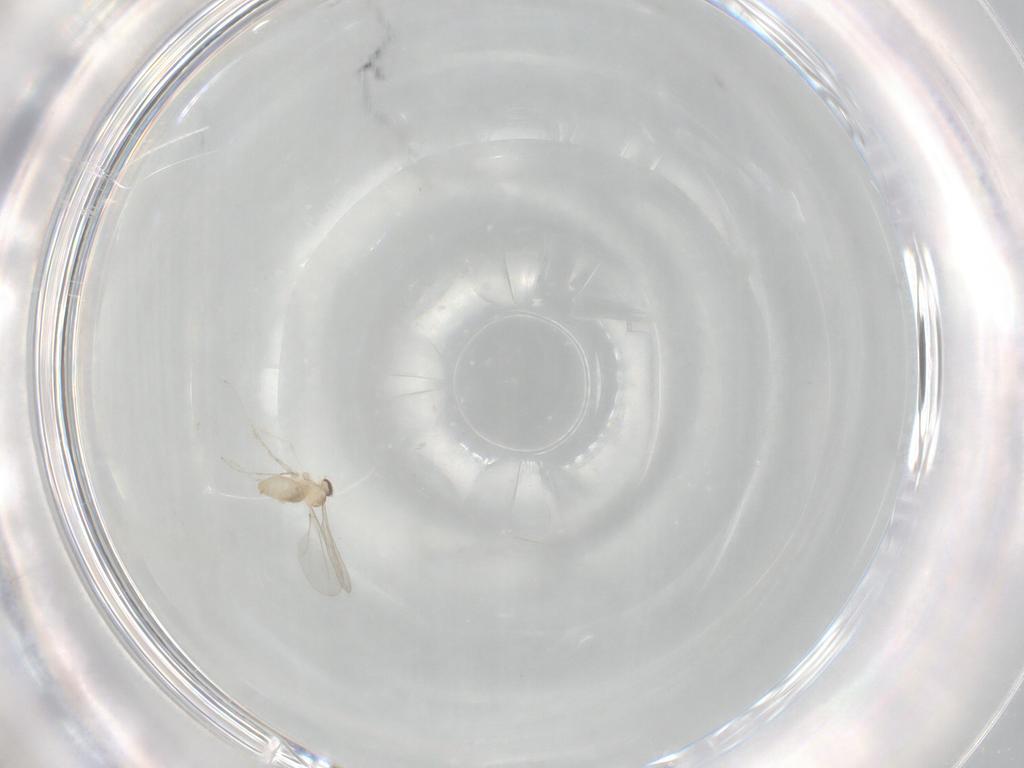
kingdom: Animalia
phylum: Arthropoda
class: Insecta
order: Diptera
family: Cecidomyiidae
